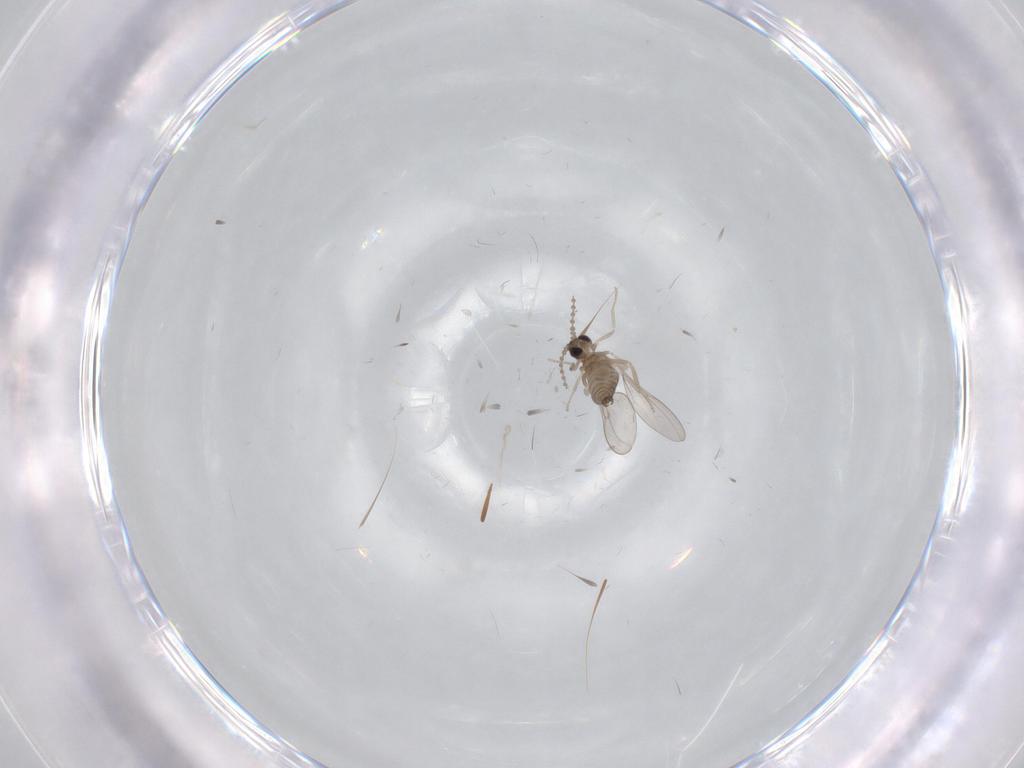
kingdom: Animalia
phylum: Arthropoda
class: Insecta
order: Diptera
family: Cecidomyiidae
